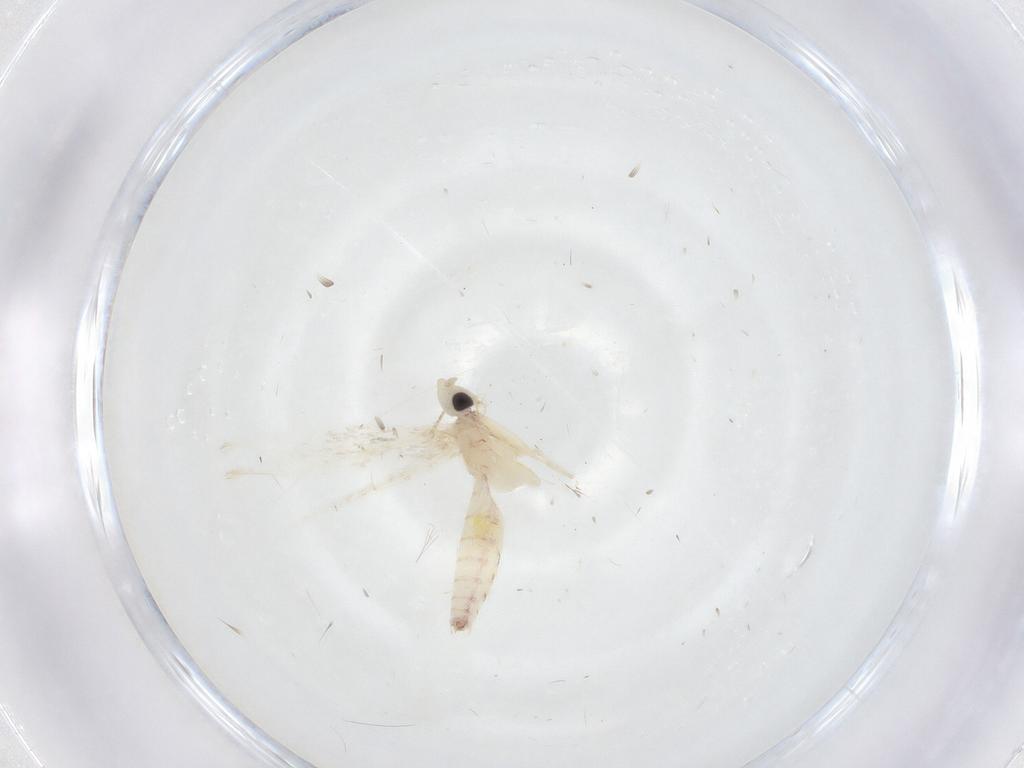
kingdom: Animalia
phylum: Arthropoda
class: Insecta
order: Lepidoptera
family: Tineidae
